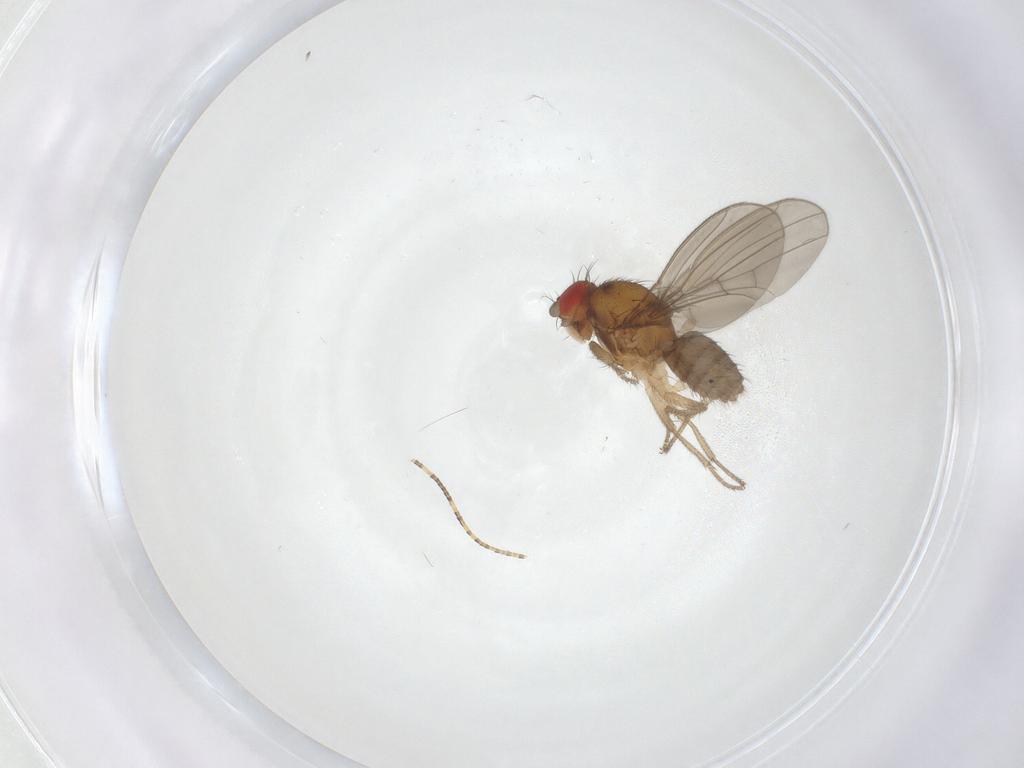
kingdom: Animalia
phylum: Arthropoda
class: Insecta
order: Diptera
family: Drosophilidae
